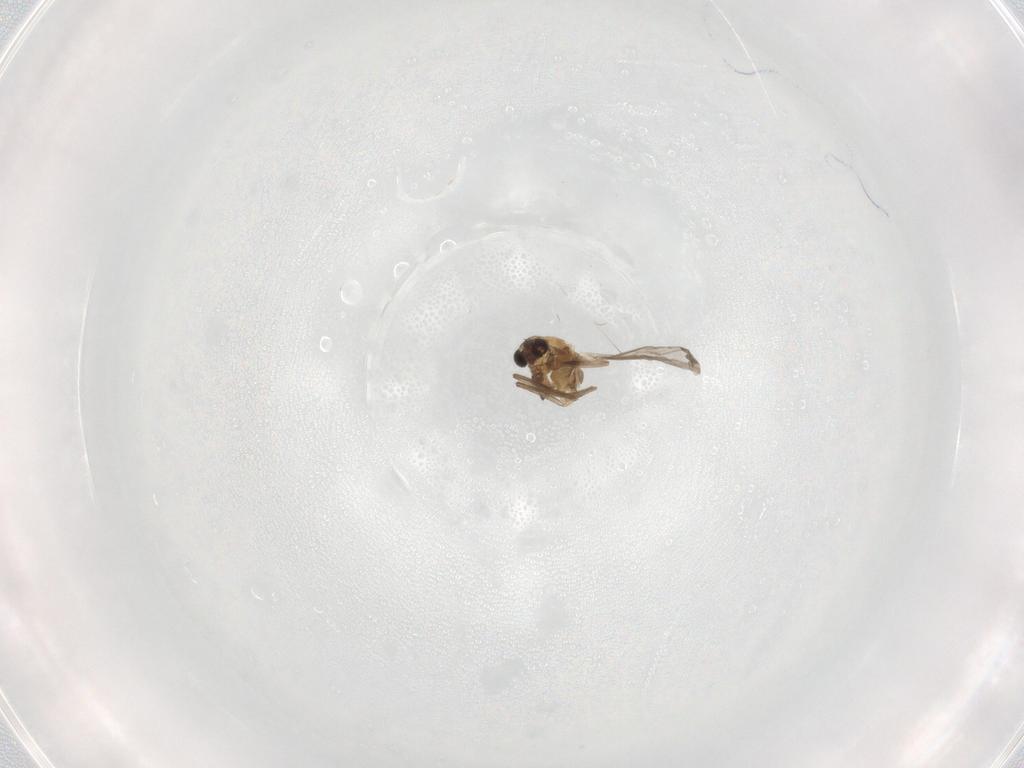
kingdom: Animalia
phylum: Arthropoda
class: Insecta
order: Diptera
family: Chironomidae
